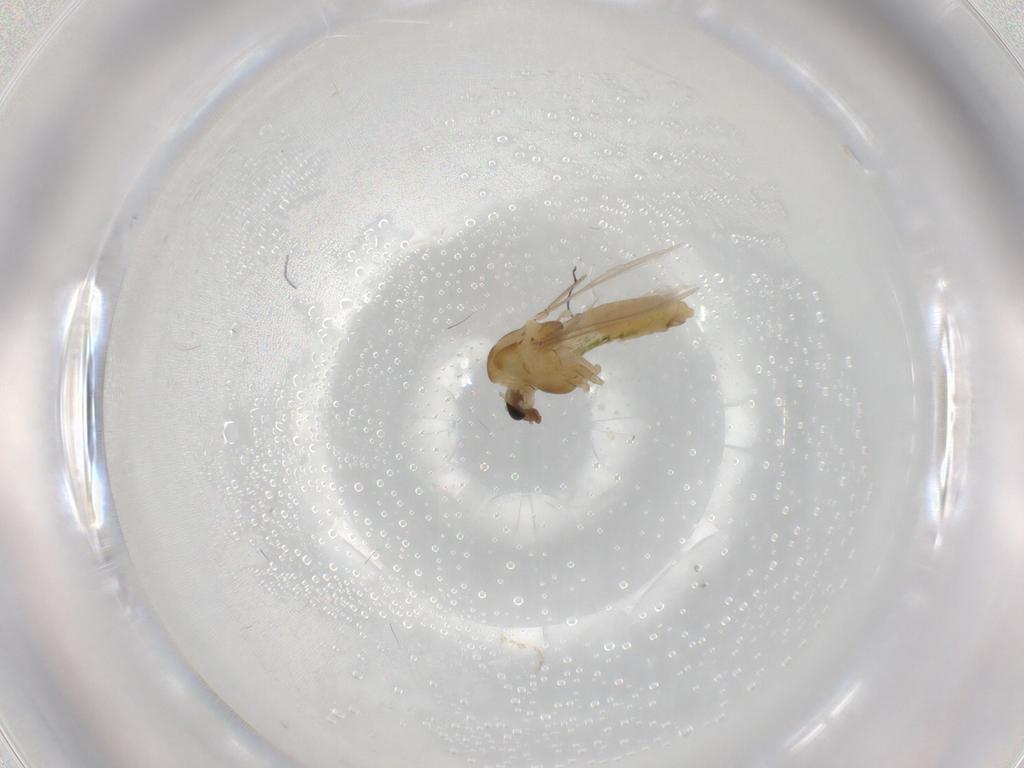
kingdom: Animalia
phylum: Arthropoda
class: Insecta
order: Diptera
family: Chironomidae
